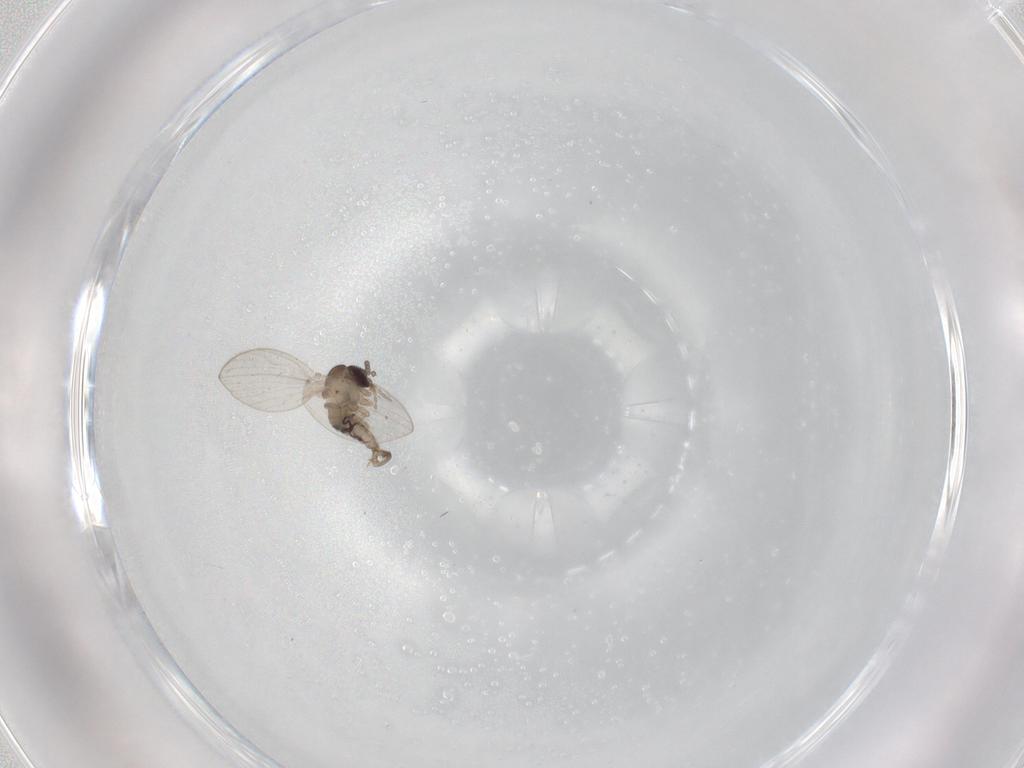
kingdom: Animalia
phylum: Arthropoda
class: Insecta
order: Diptera
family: Psychodidae
